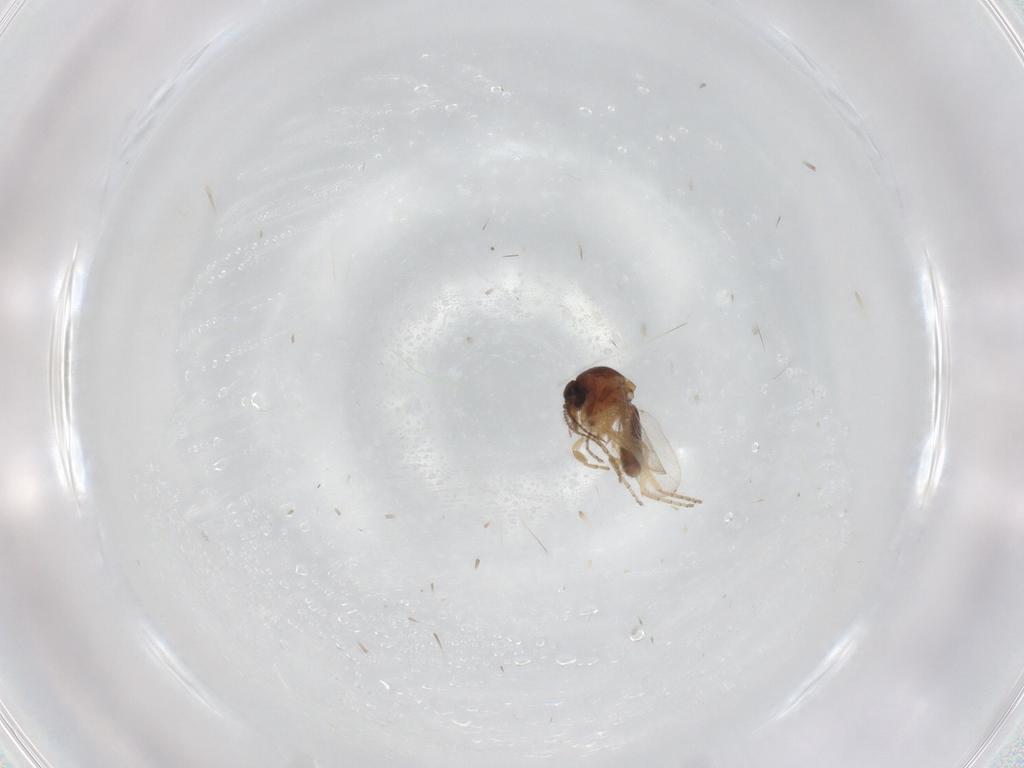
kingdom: Animalia
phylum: Arthropoda
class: Insecta
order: Diptera
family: Ceratopogonidae
